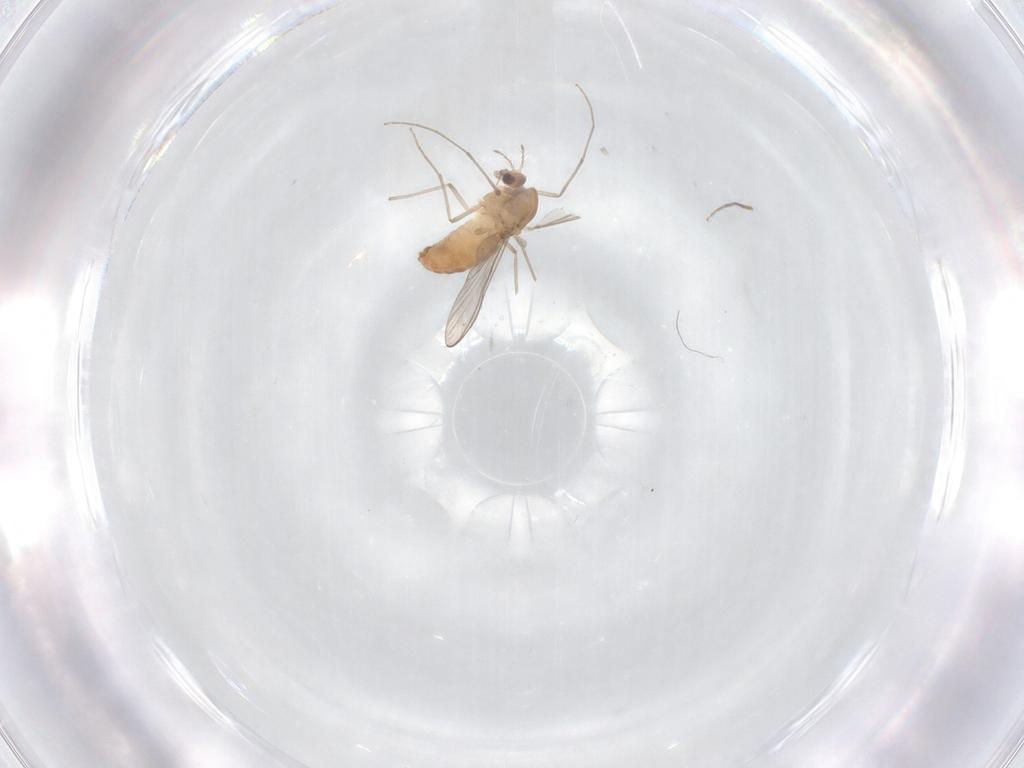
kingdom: Animalia
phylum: Arthropoda
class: Insecta
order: Diptera
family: Chironomidae
